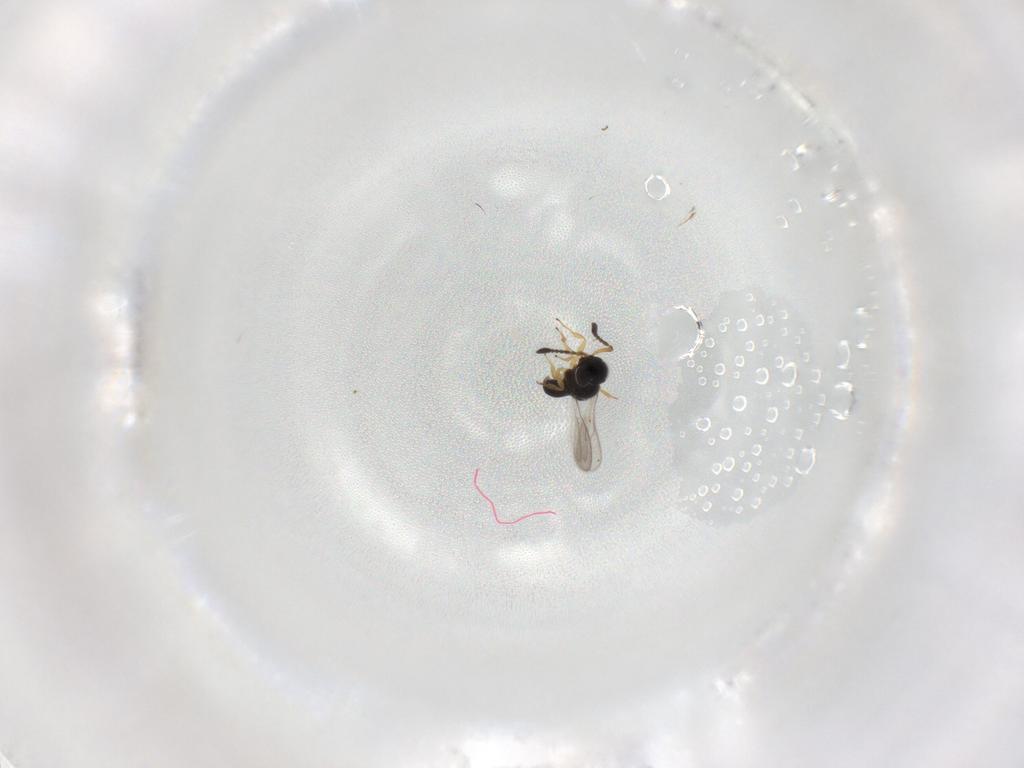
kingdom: Animalia
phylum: Arthropoda
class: Insecta
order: Hymenoptera
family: Scelionidae
